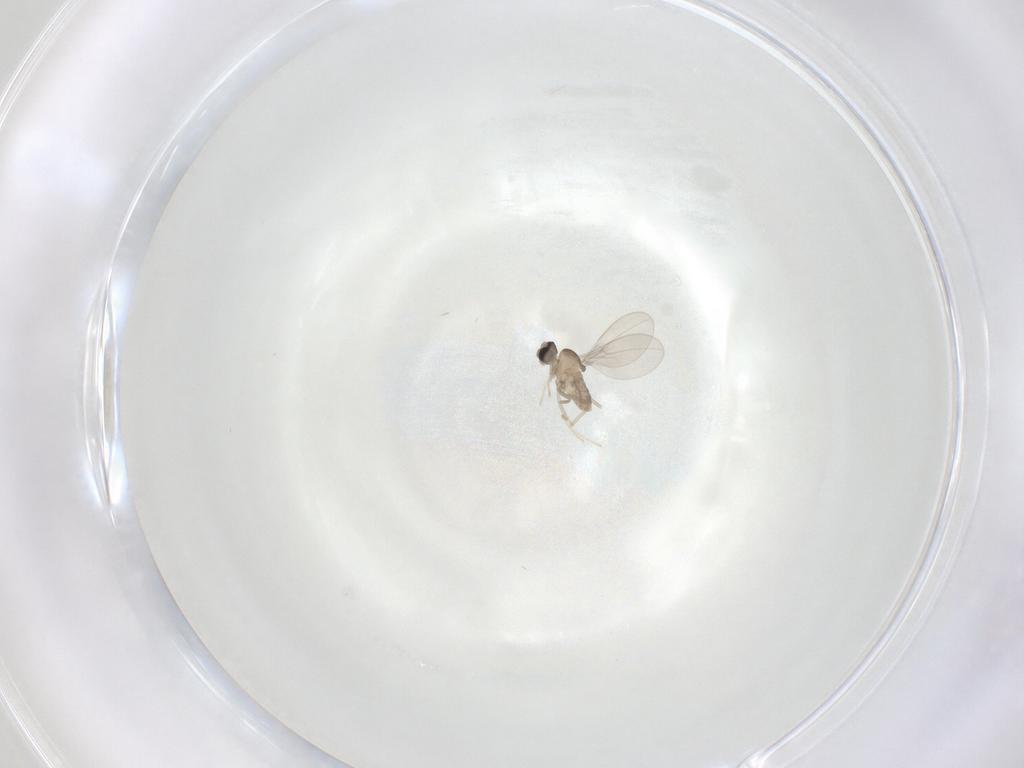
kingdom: Animalia
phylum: Arthropoda
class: Insecta
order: Diptera
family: Cecidomyiidae
